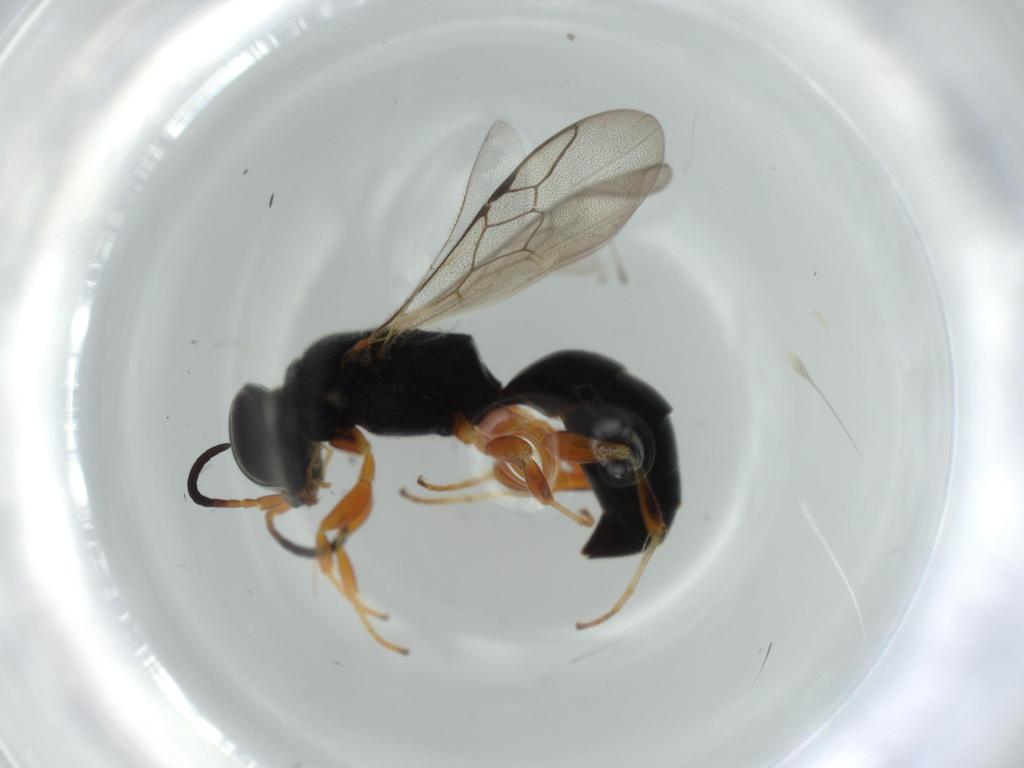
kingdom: Animalia
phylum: Arthropoda
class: Insecta
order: Hymenoptera
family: Crabronidae
